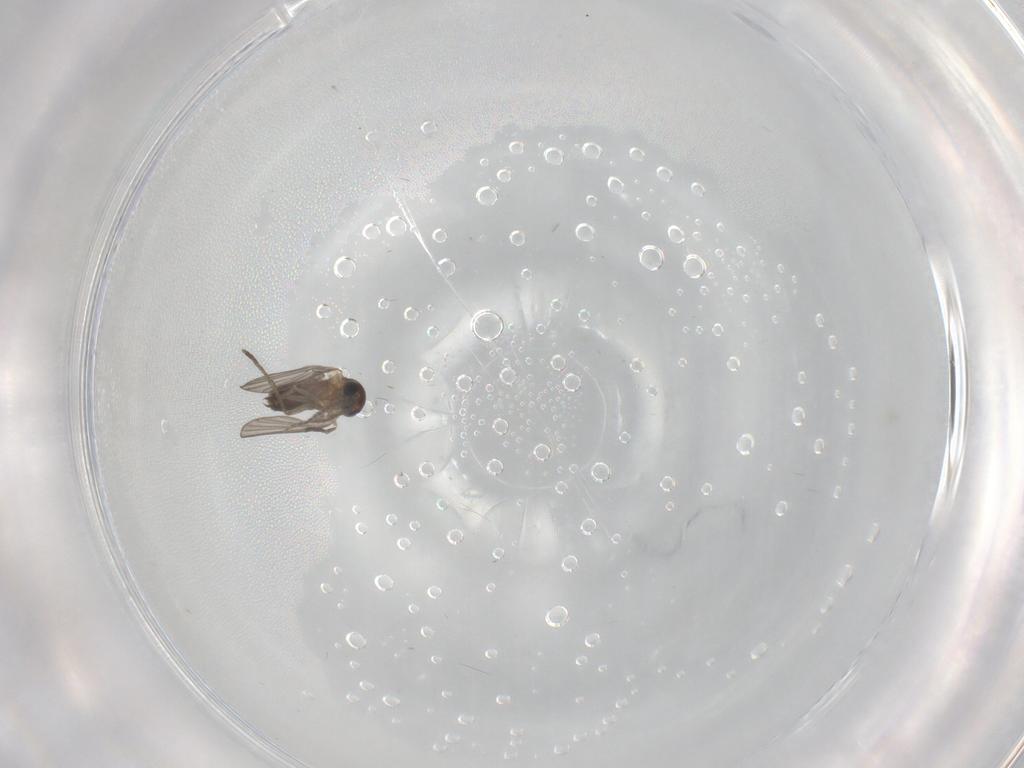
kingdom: Animalia
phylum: Arthropoda
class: Insecta
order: Diptera
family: Psychodidae
